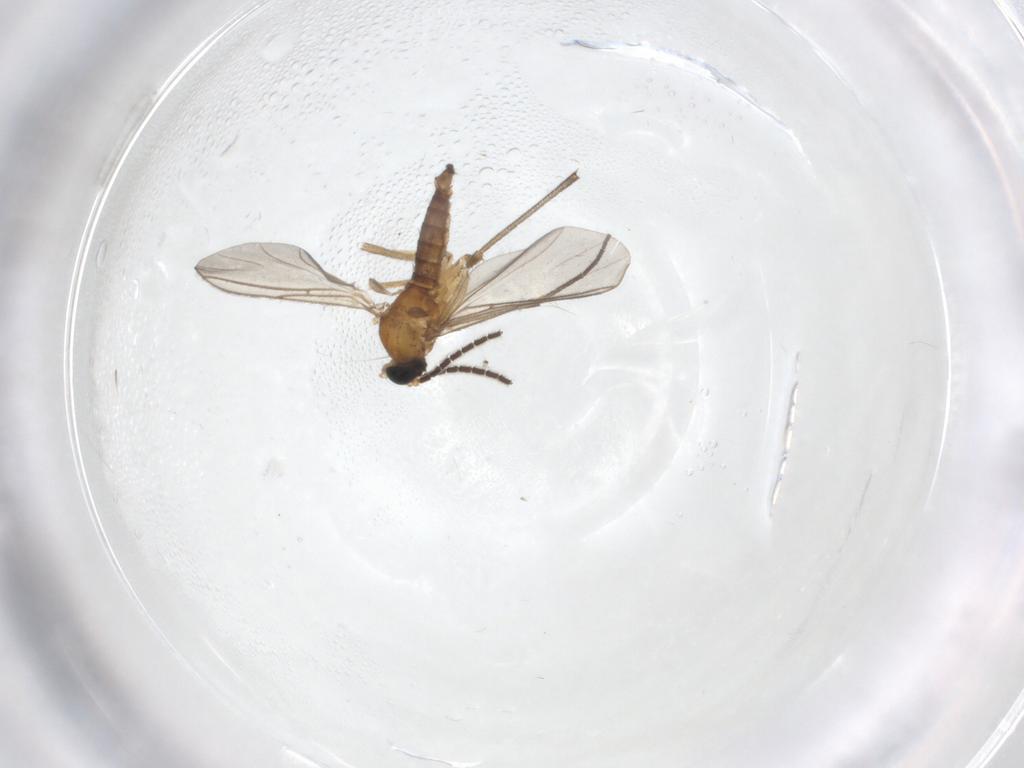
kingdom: Animalia
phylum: Arthropoda
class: Insecta
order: Diptera
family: Sciaridae
